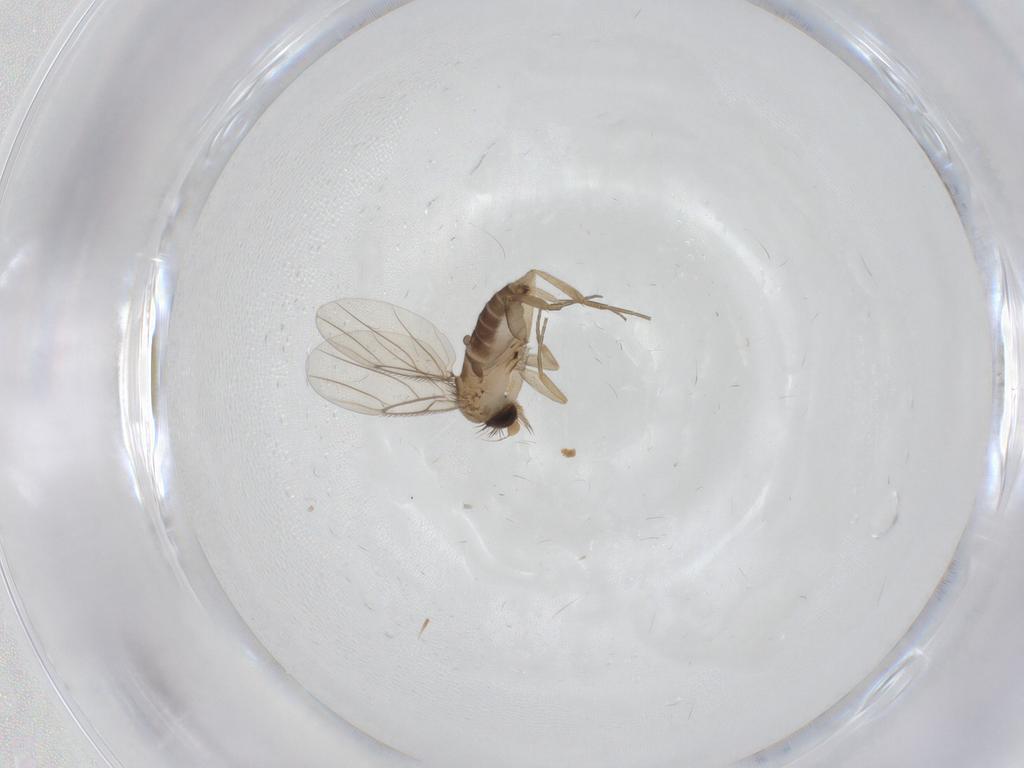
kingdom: Animalia
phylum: Arthropoda
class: Insecta
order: Diptera
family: Phoridae
